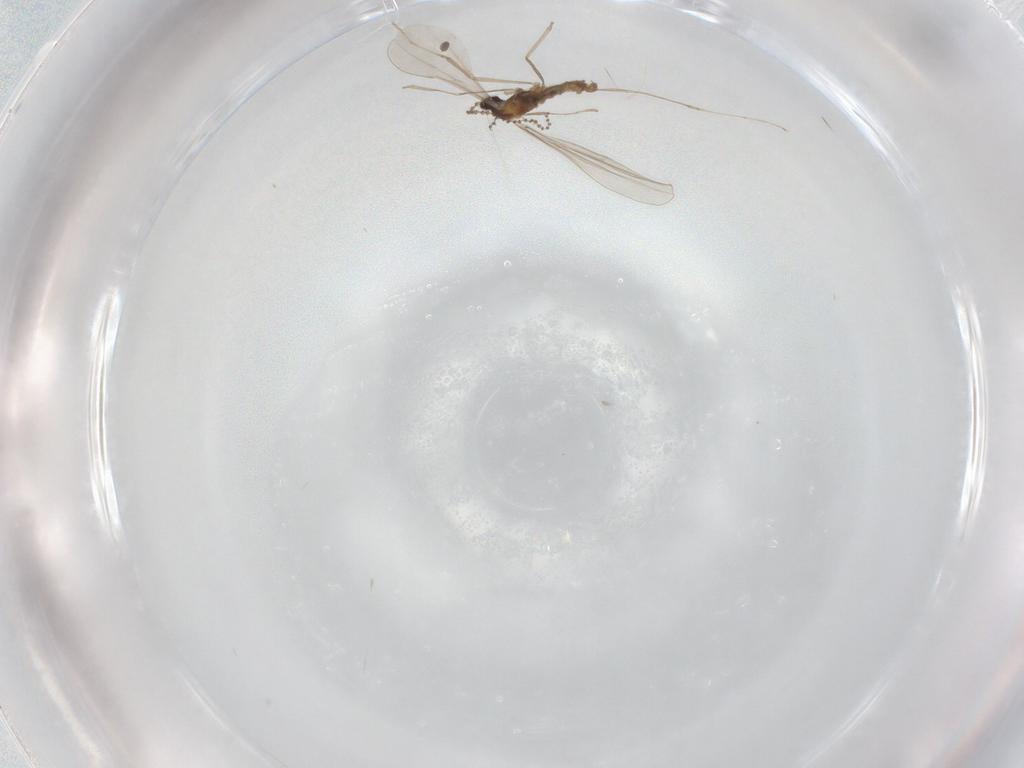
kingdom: Animalia
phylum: Arthropoda
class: Insecta
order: Diptera
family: Cecidomyiidae
